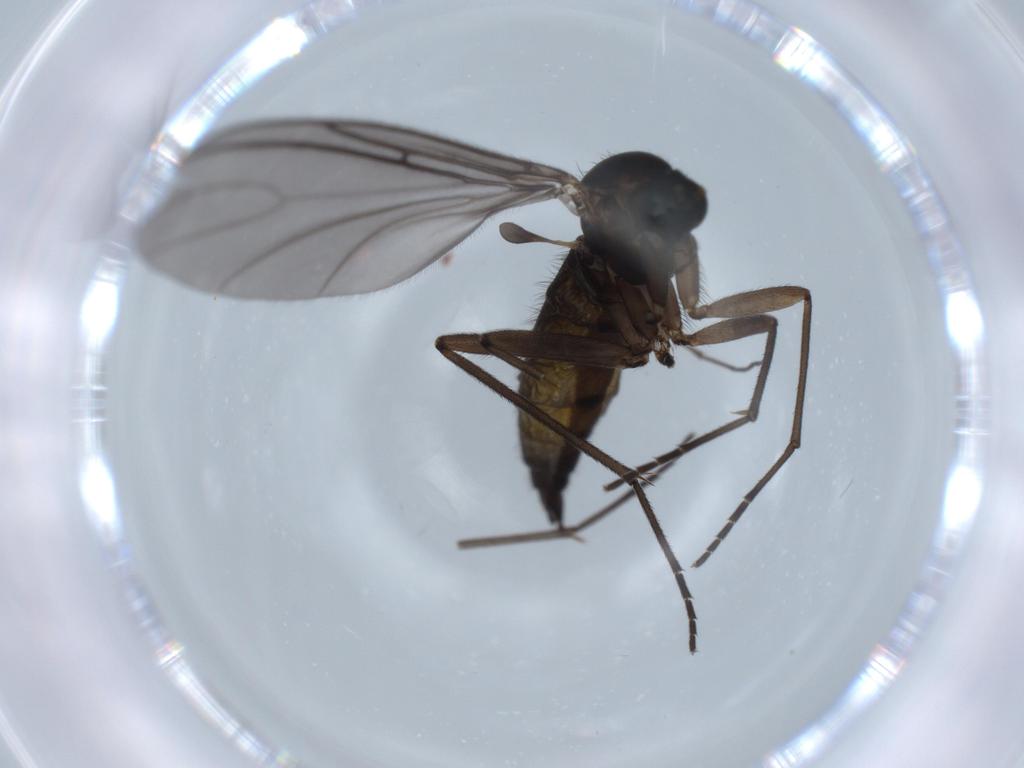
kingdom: Animalia
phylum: Arthropoda
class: Insecta
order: Diptera
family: Sciaridae
